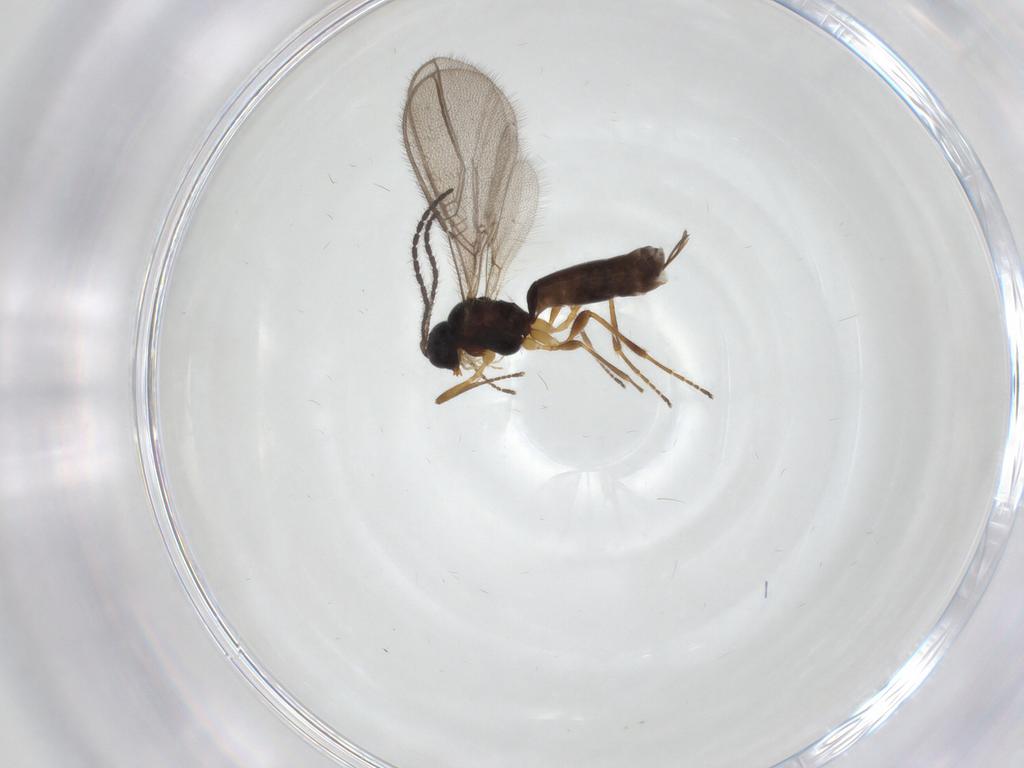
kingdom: Animalia
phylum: Arthropoda
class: Insecta
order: Hymenoptera
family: Braconidae
